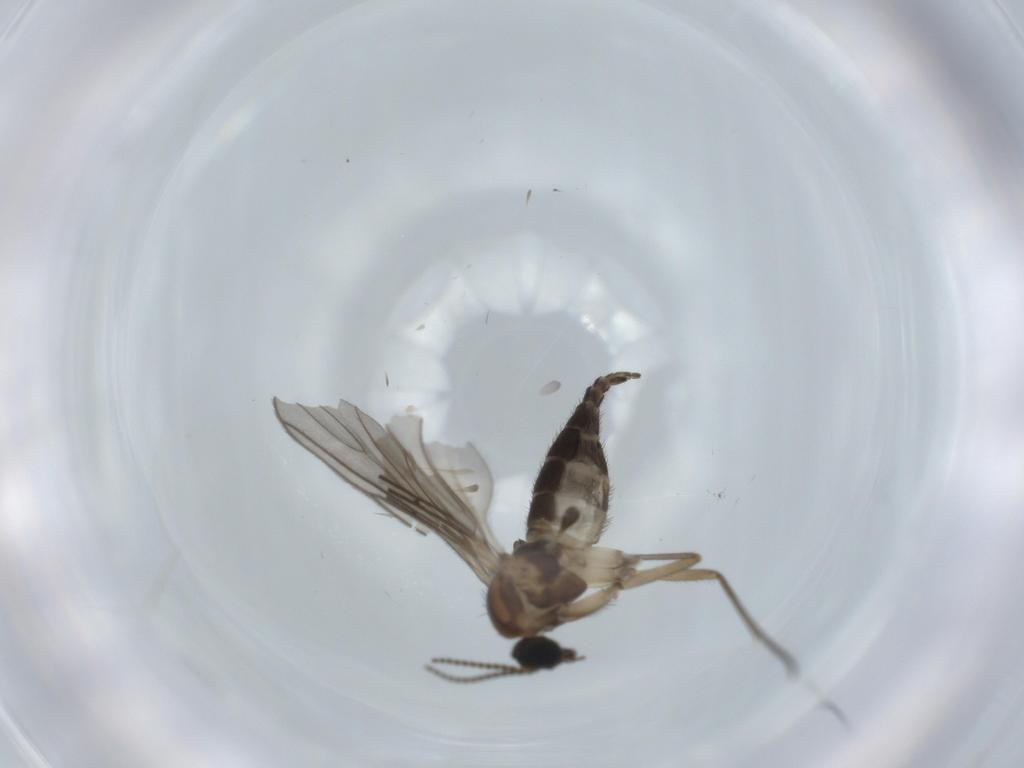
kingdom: Animalia
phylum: Arthropoda
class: Insecta
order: Diptera
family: Sciaridae
